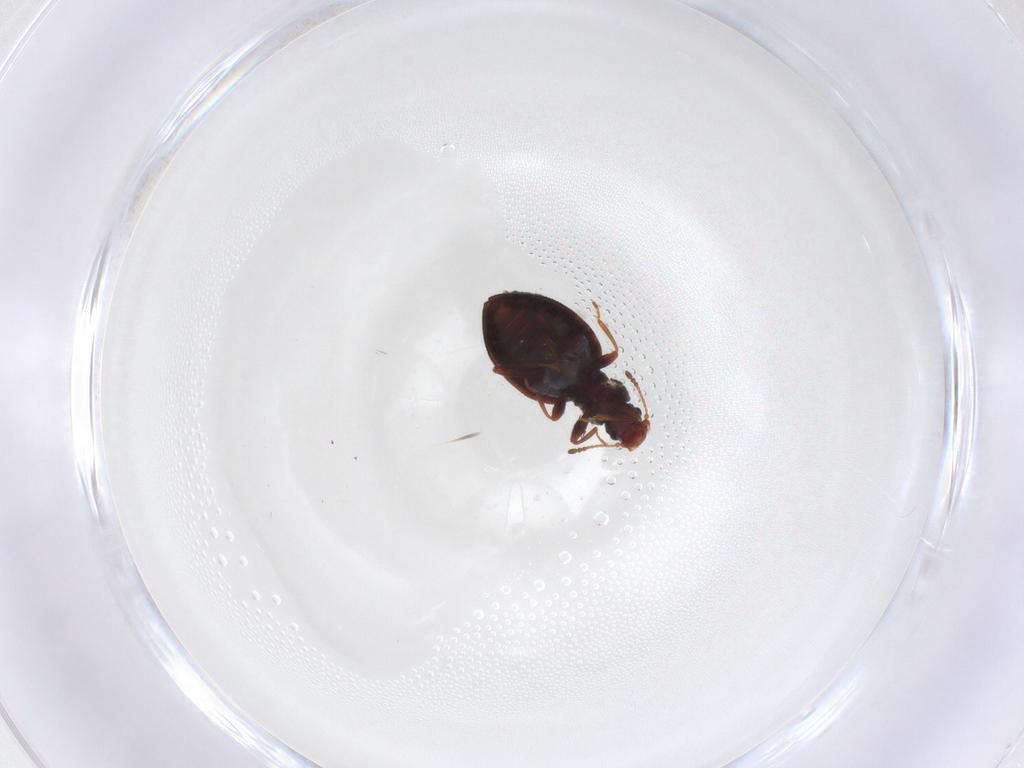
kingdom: Animalia
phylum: Arthropoda
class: Insecta
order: Coleoptera
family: Latridiidae
